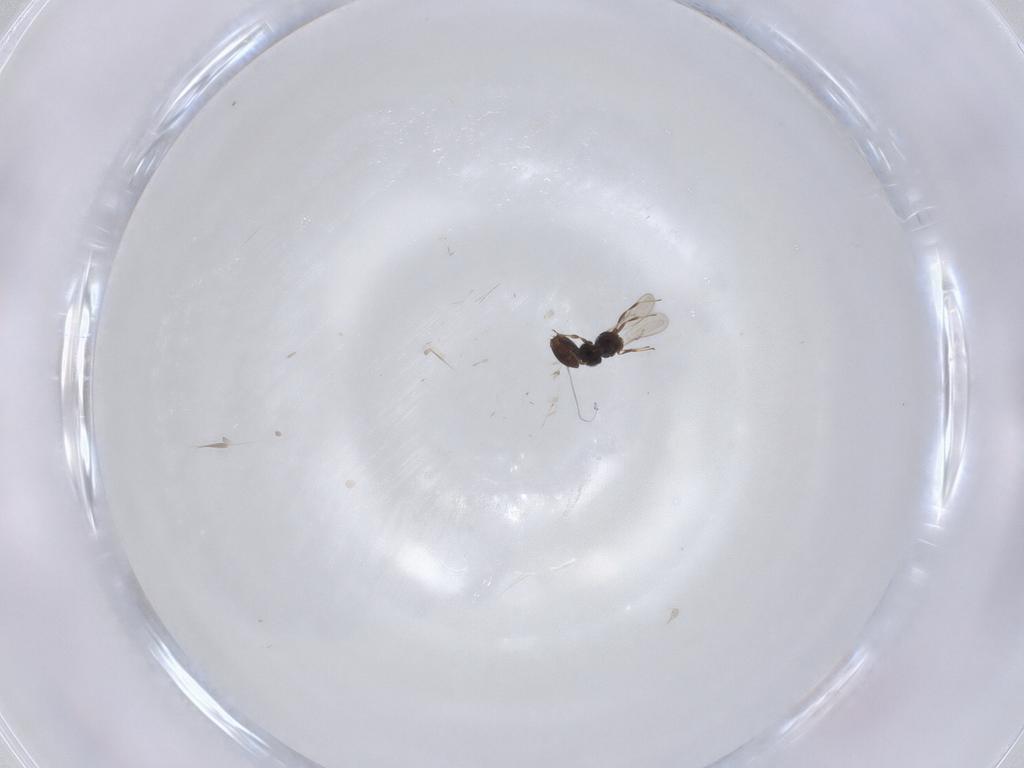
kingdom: Animalia
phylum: Arthropoda
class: Insecta
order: Hymenoptera
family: Scelionidae
